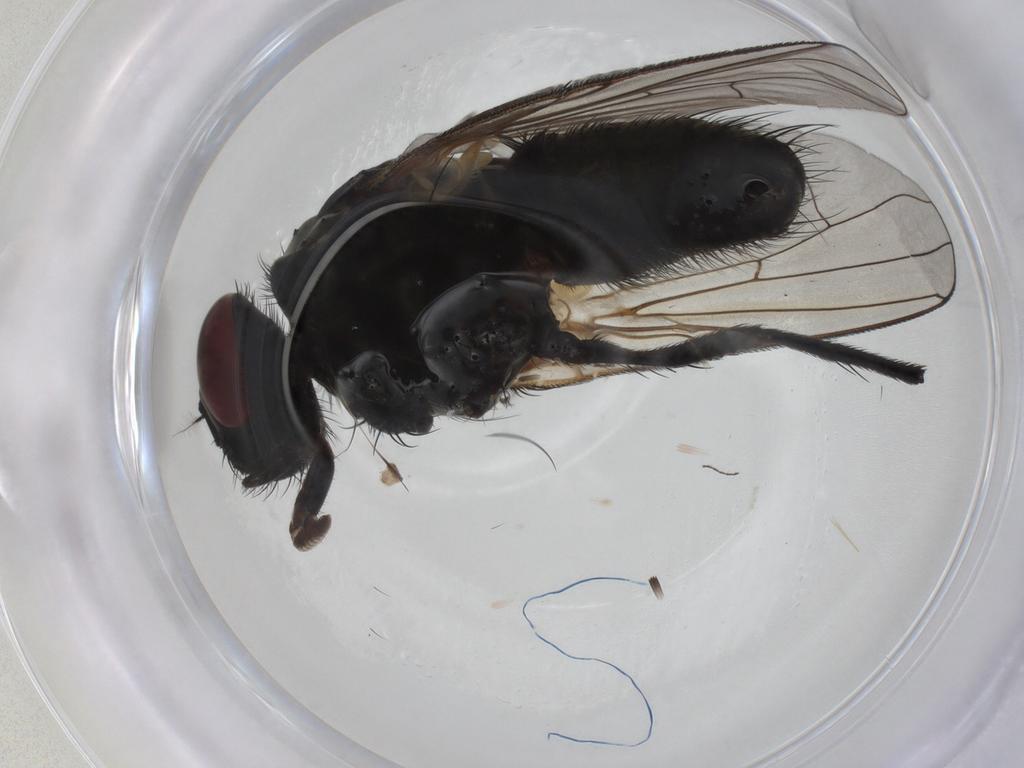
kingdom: Animalia
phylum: Arthropoda
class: Insecta
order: Diptera
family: Muscidae
